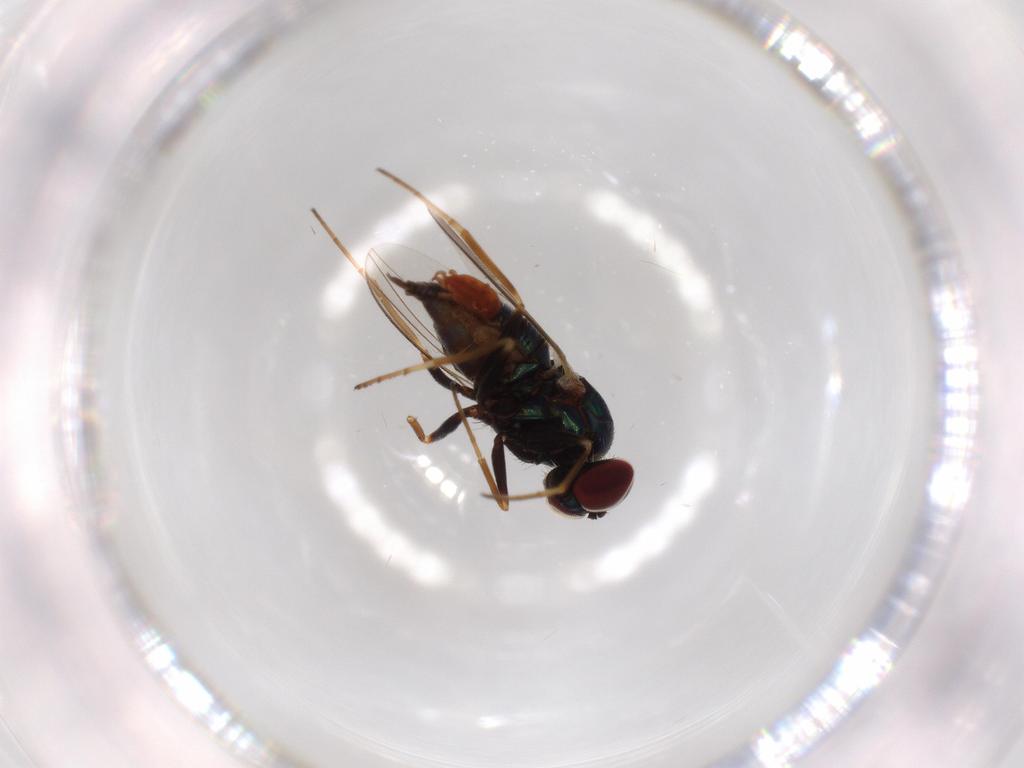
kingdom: Animalia
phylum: Arthropoda
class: Insecta
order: Diptera
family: Dolichopodidae
